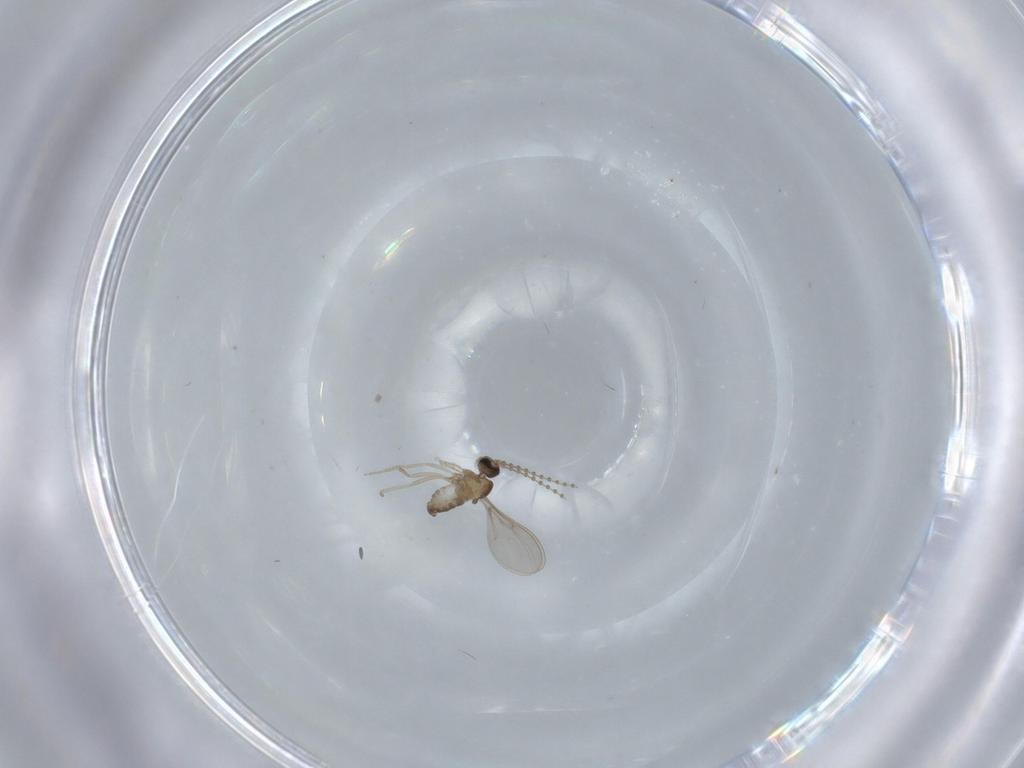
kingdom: Animalia
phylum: Arthropoda
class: Insecta
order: Diptera
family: Cecidomyiidae
